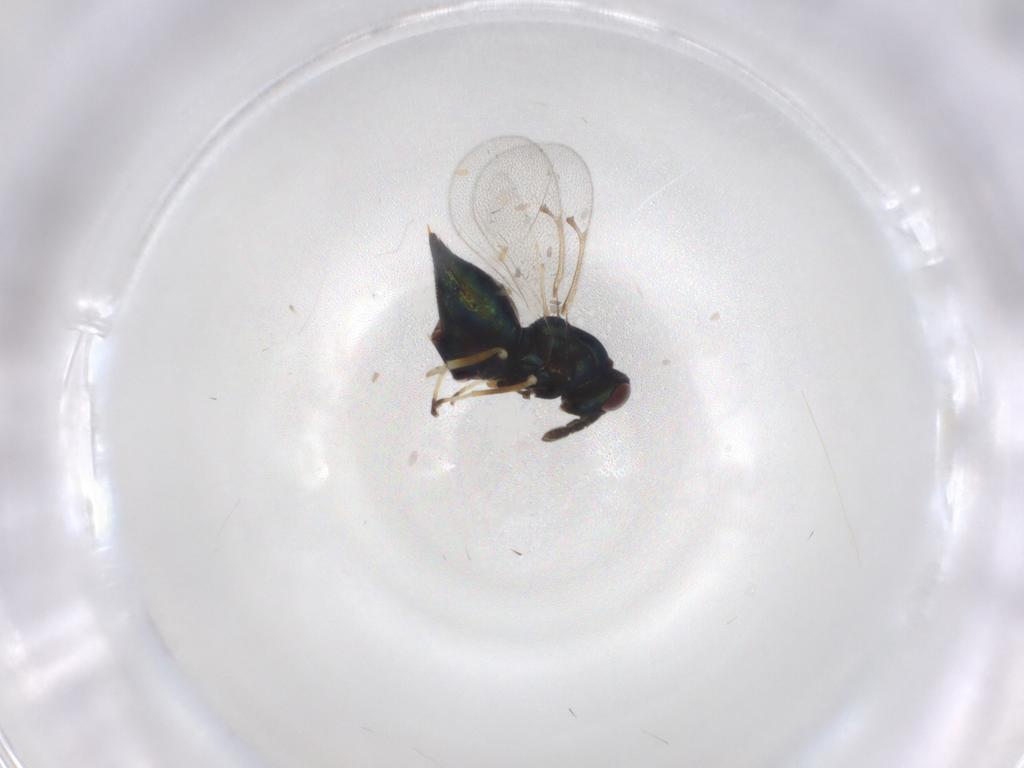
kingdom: Animalia
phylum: Arthropoda
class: Insecta
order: Hymenoptera
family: Eulophidae
